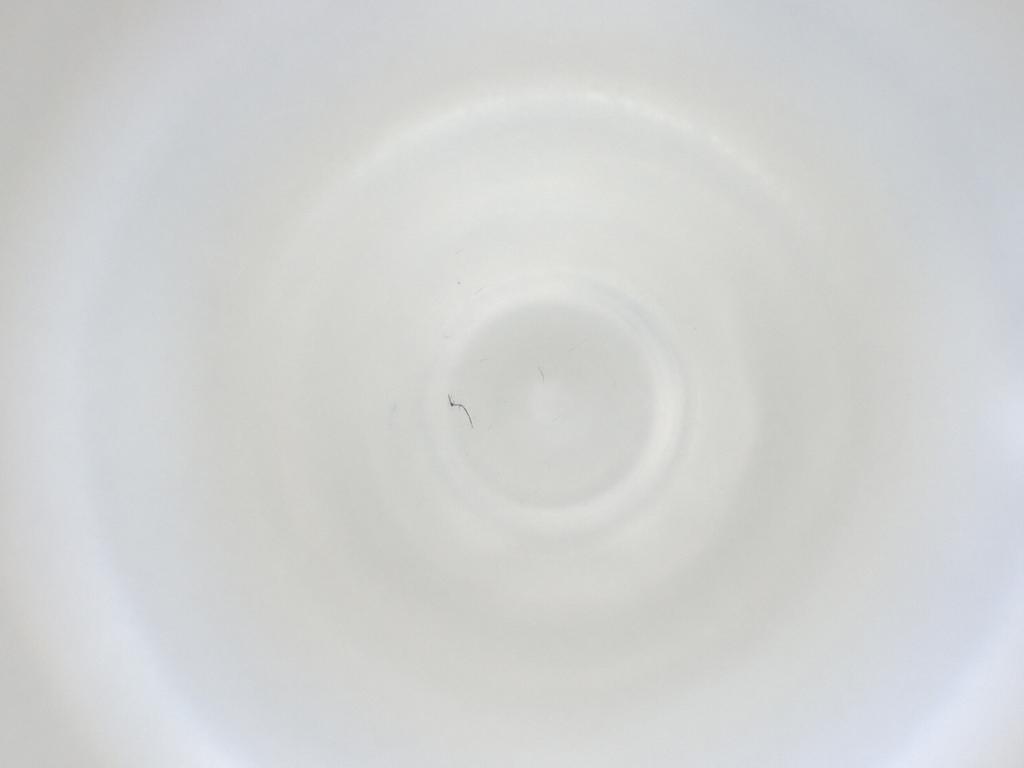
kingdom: Animalia
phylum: Arthropoda
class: Insecta
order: Diptera
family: Cecidomyiidae
